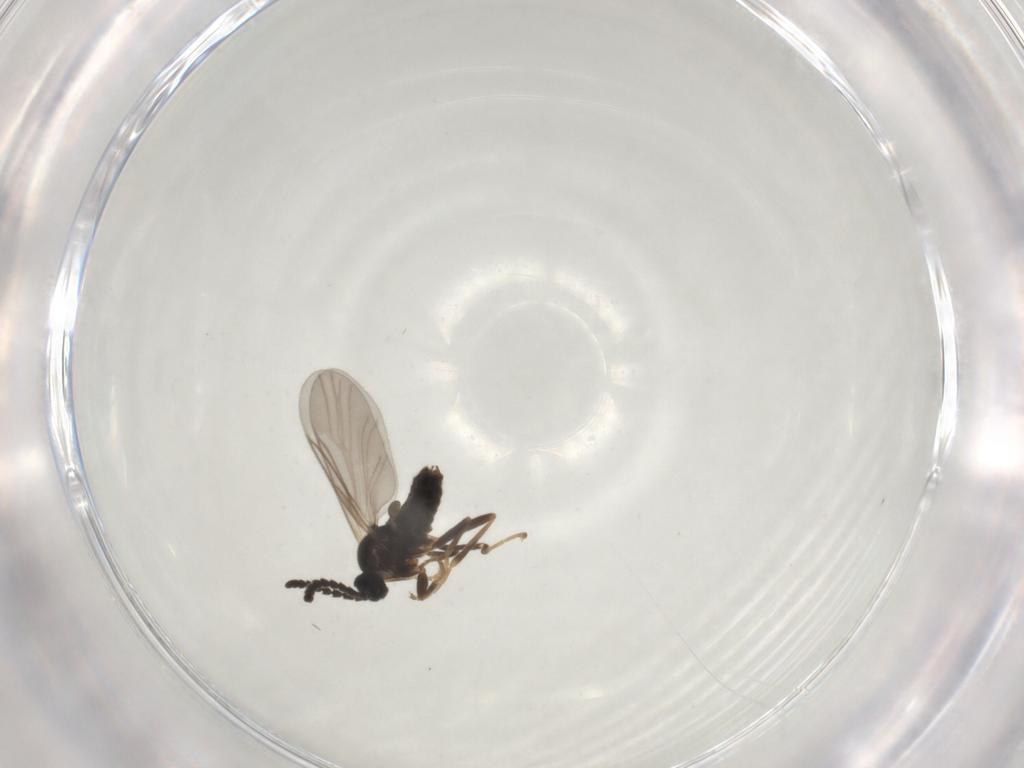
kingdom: Animalia
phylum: Arthropoda
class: Insecta
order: Diptera
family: Scatopsidae
